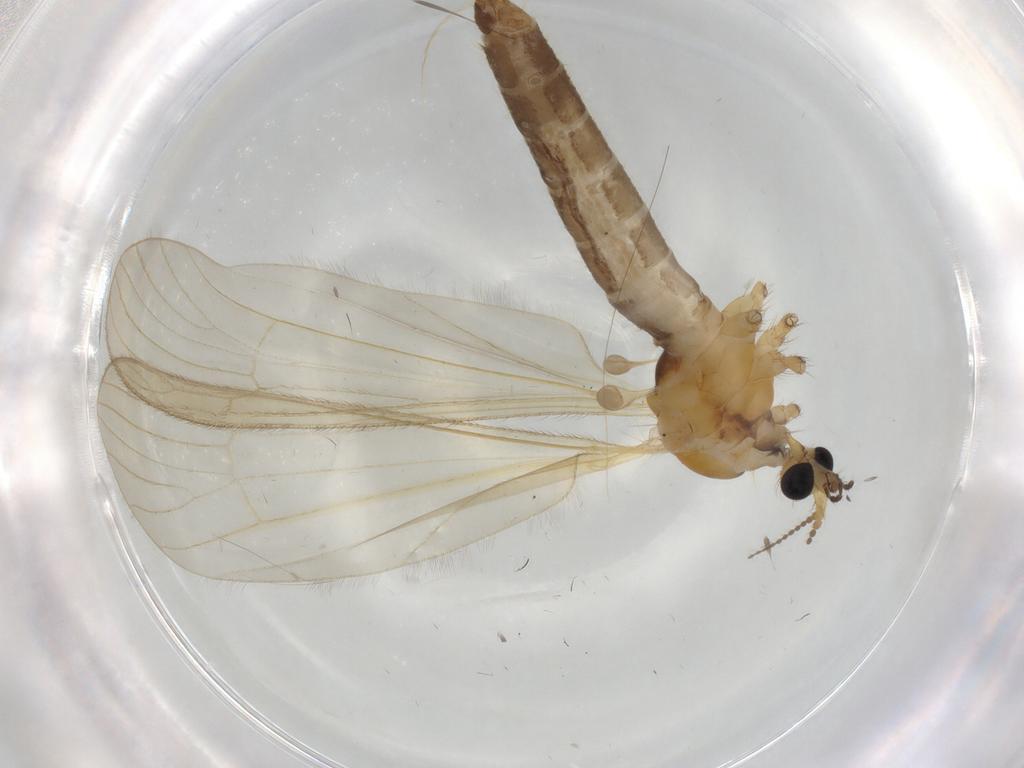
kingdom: Animalia
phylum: Arthropoda
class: Insecta
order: Diptera
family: Limoniidae
